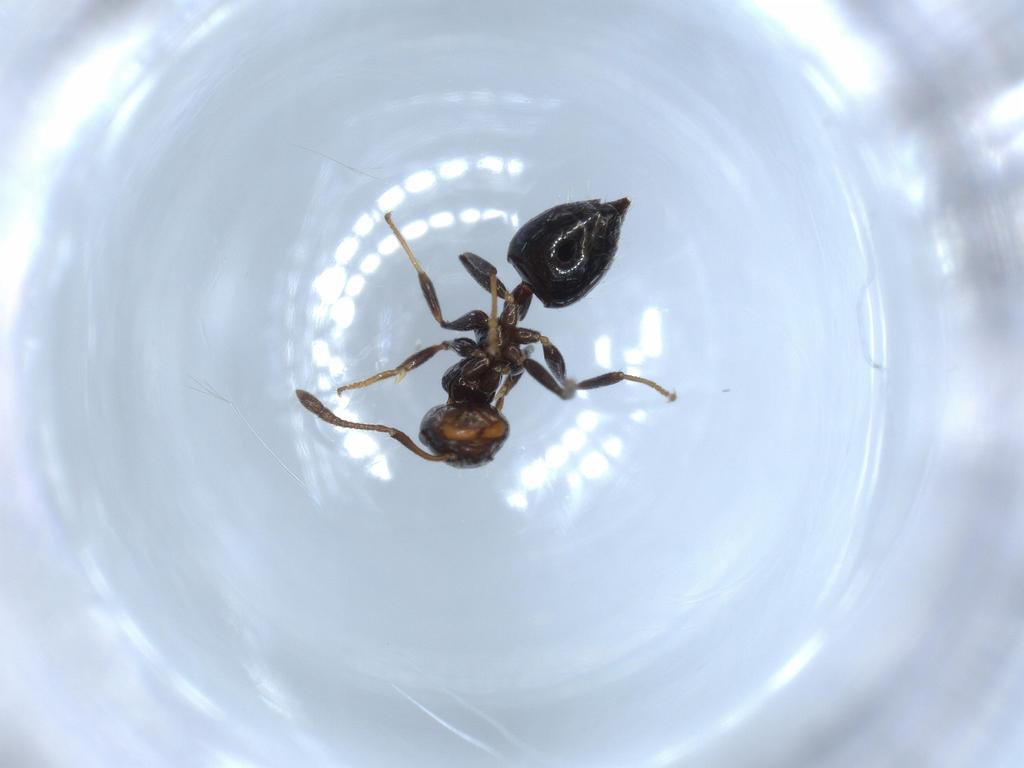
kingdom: Animalia
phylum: Arthropoda
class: Insecta
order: Hymenoptera
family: Formicidae
